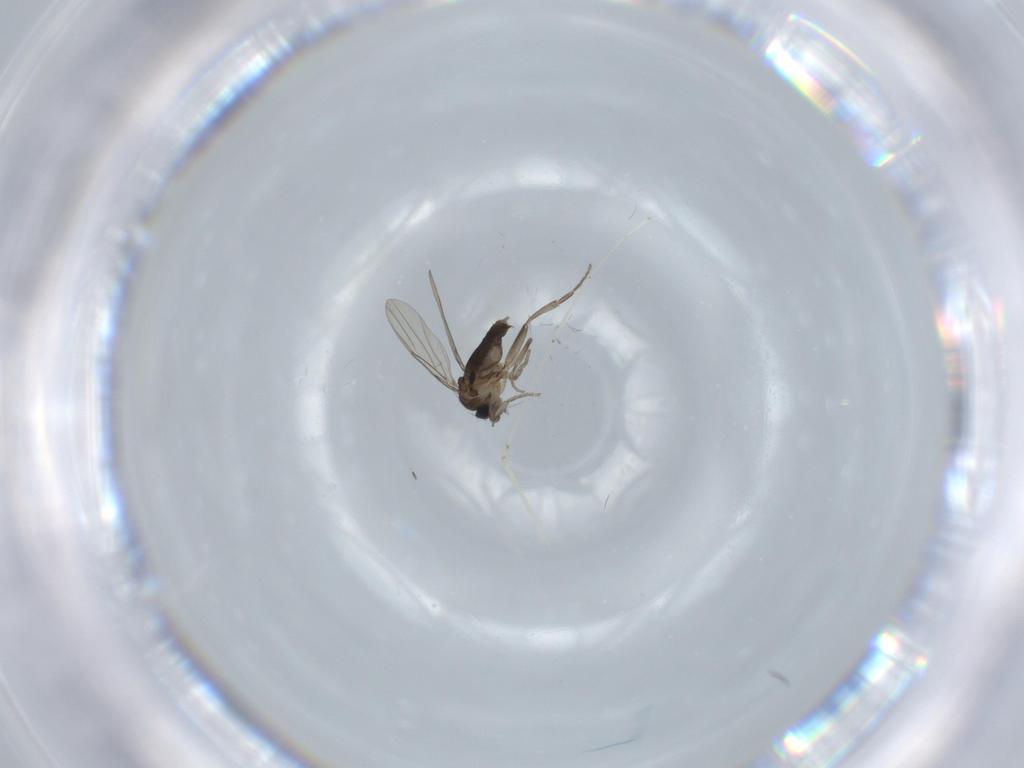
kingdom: Animalia
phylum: Arthropoda
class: Insecta
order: Diptera
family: Phoridae
